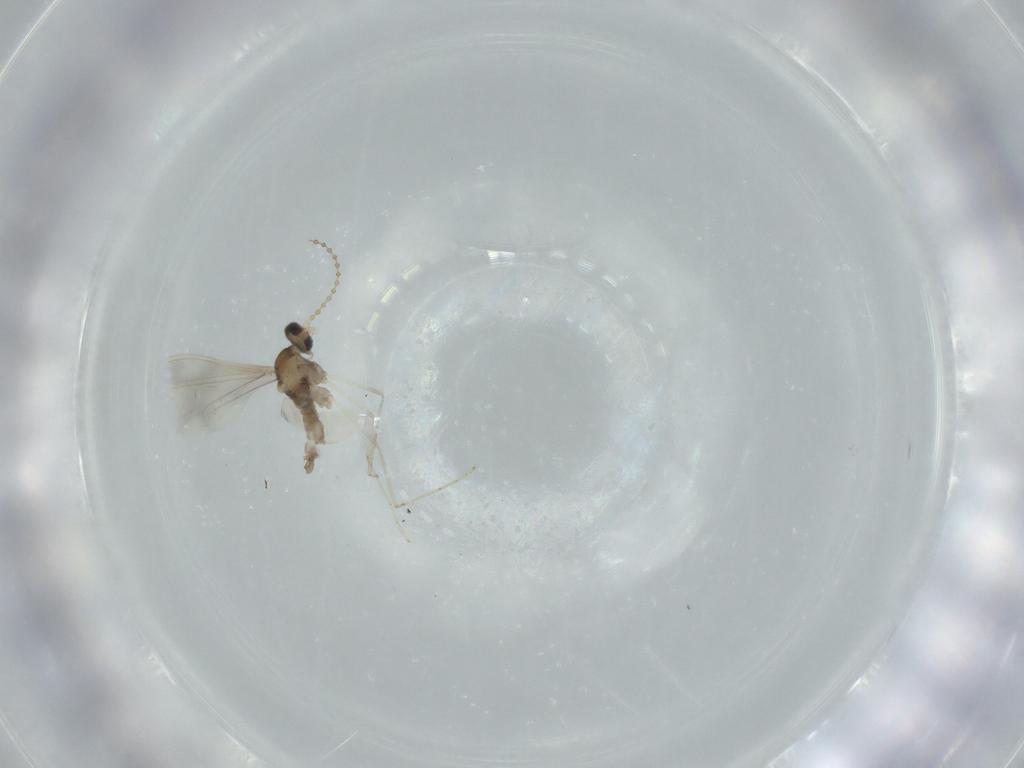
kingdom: Animalia
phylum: Arthropoda
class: Insecta
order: Diptera
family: Cecidomyiidae
